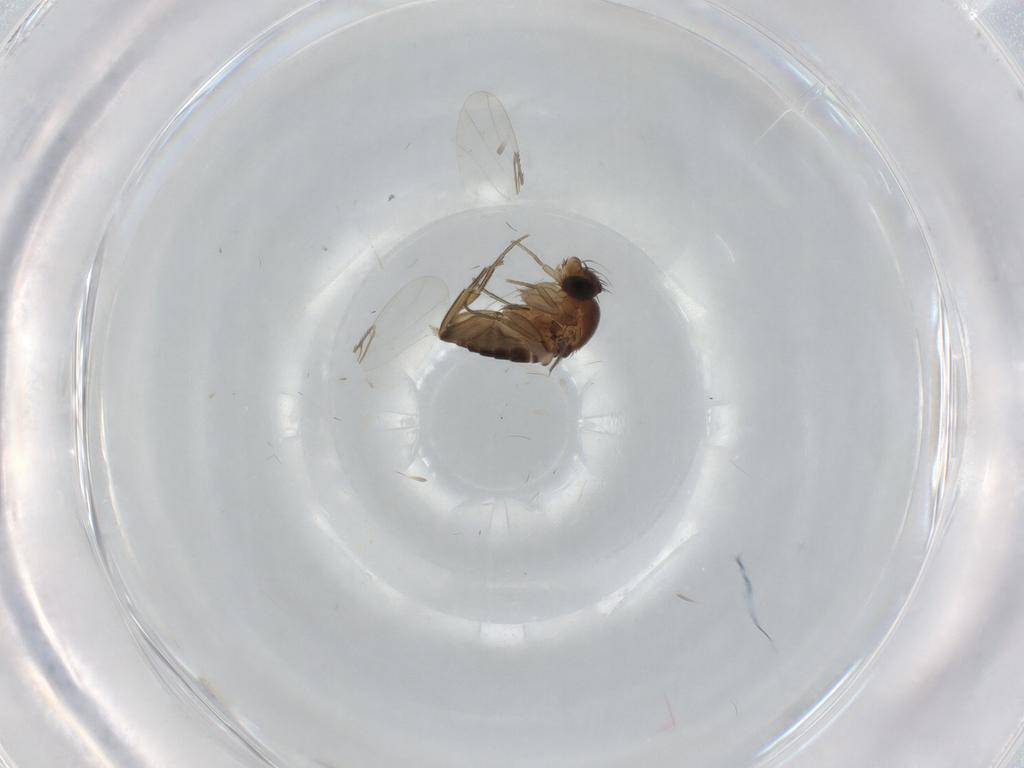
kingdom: Animalia
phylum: Arthropoda
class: Insecta
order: Diptera
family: Phoridae
